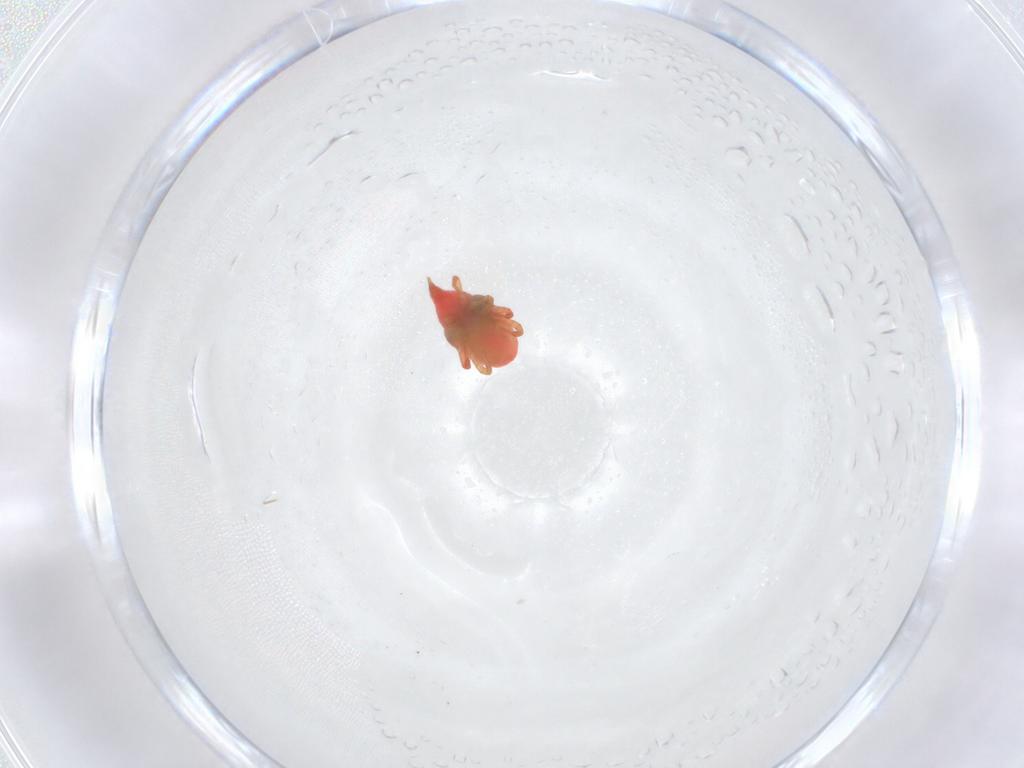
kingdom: Animalia
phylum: Arthropoda
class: Arachnida
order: Trombidiformes
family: Bdellidae
